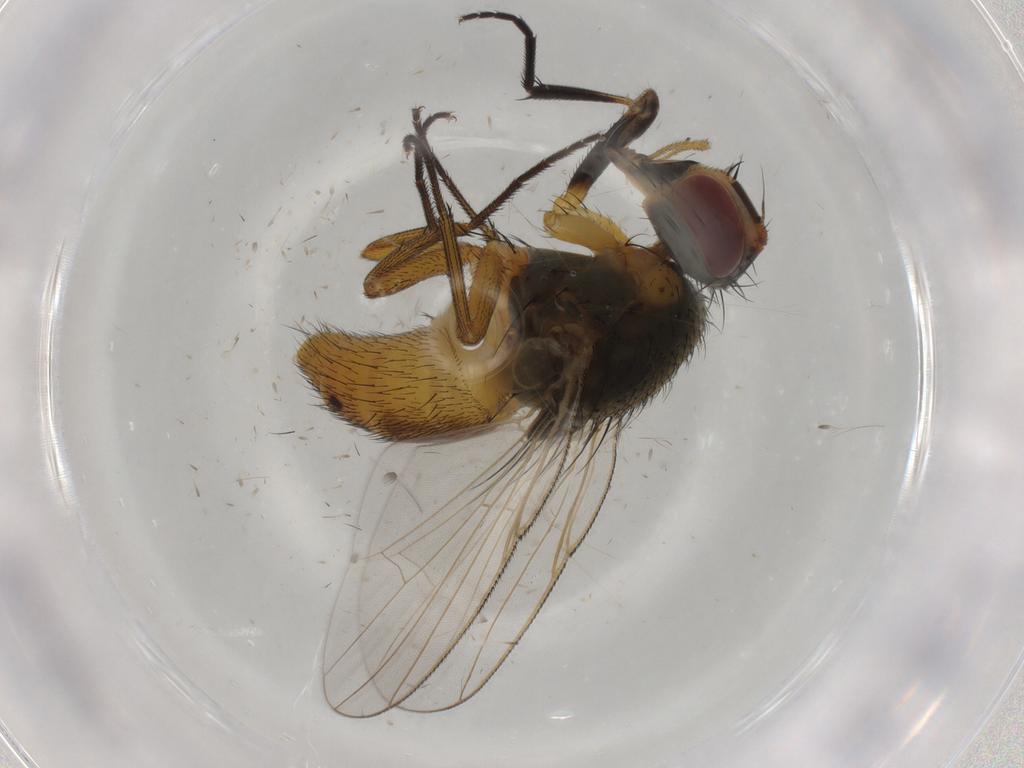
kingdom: Animalia
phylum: Arthropoda
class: Insecta
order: Diptera
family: Muscidae
